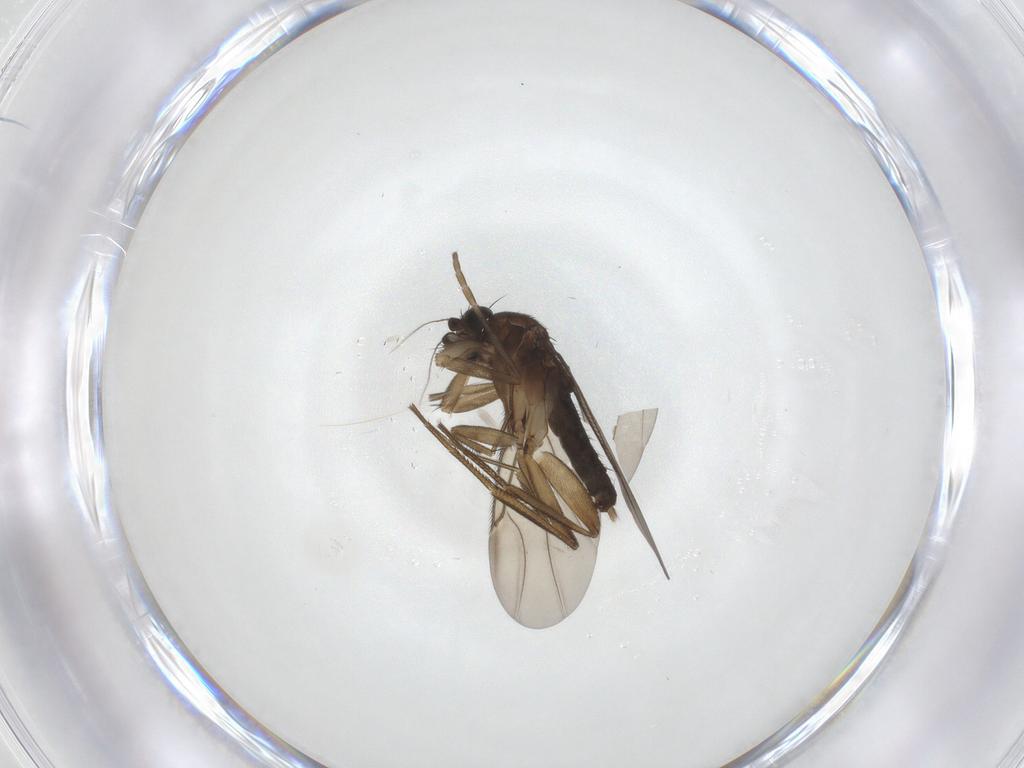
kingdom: Animalia
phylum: Arthropoda
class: Insecta
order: Diptera
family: Phoridae
